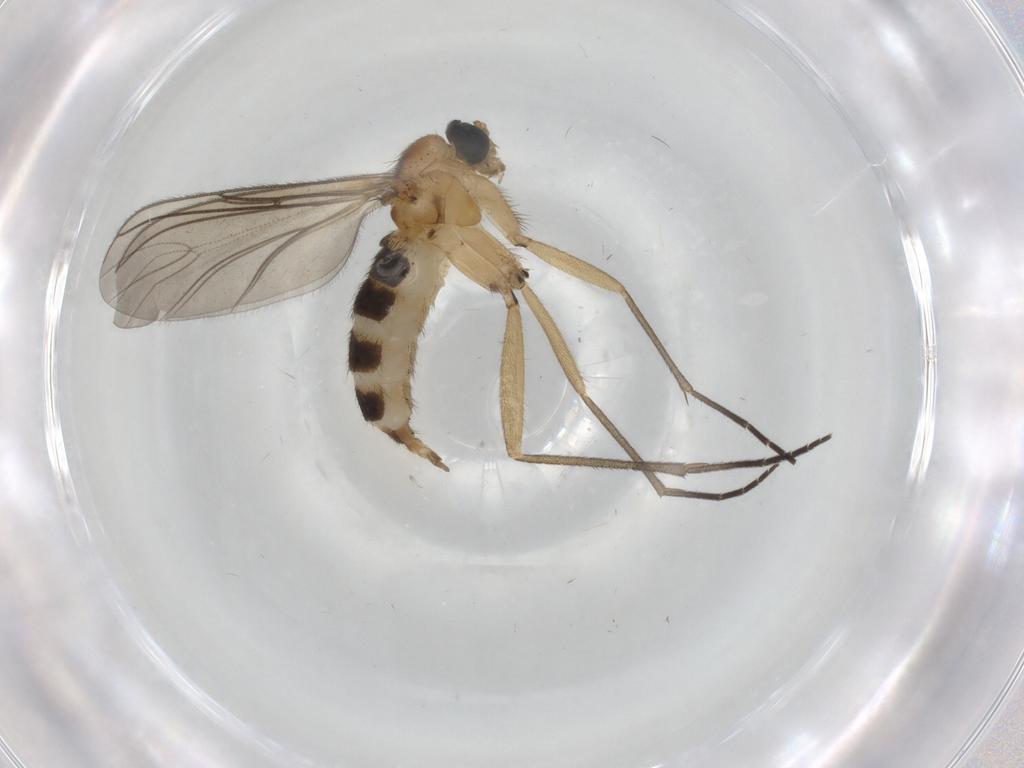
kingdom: Animalia
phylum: Arthropoda
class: Insecta
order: Diptera
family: Sciaridae
